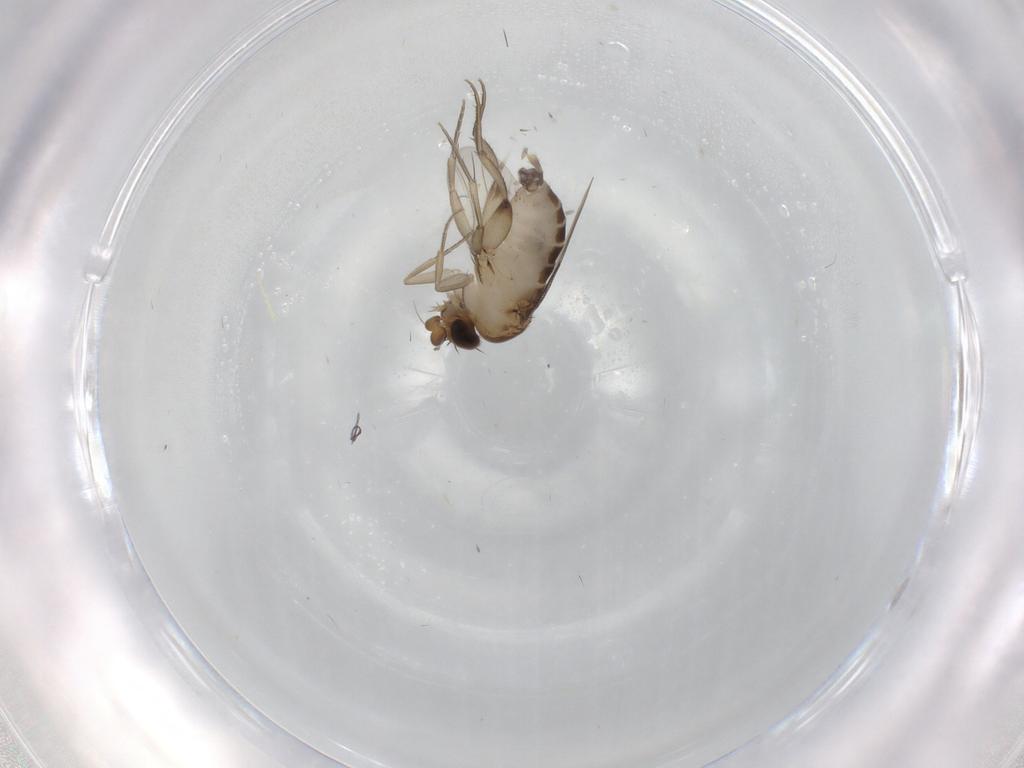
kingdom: Animalia
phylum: Arthropoda
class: Insecta
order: Diptera
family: Phoridae
